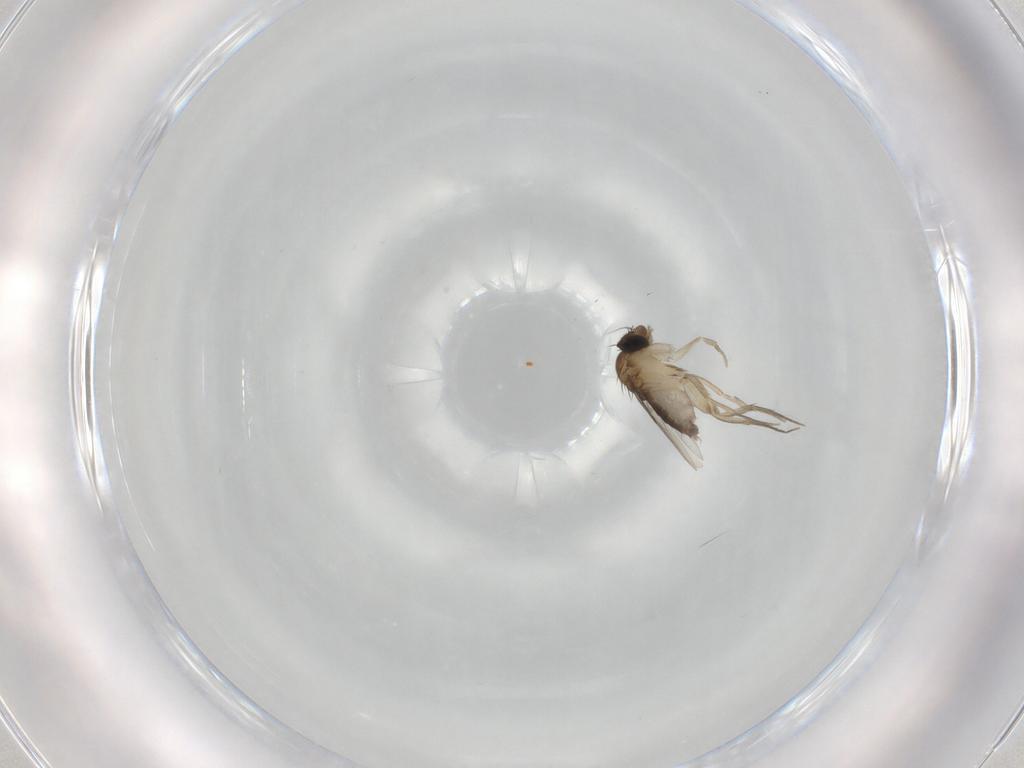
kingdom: Animalia
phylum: Arthropoda
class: Insecta
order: Diptera
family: Phoridae
